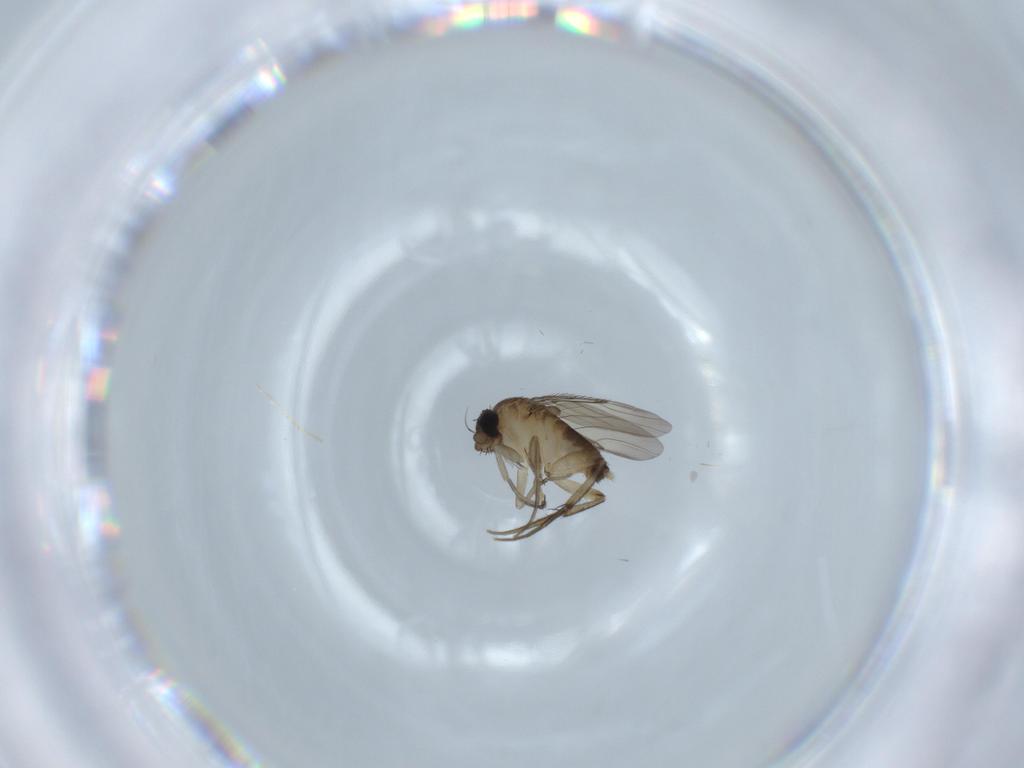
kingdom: Animalia
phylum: Arthropoda
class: Insecta
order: Diptera
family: Phoridae
